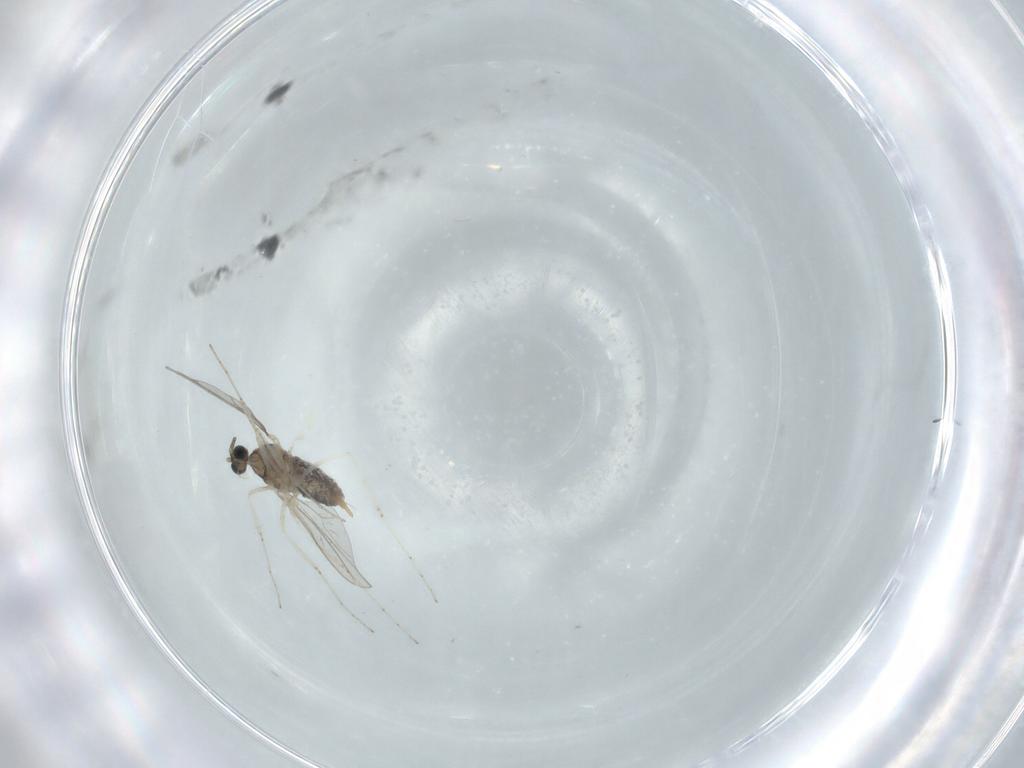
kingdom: Animalia
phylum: Arthropoda
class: Insecta
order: Diptera
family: Cecidomyiidae
